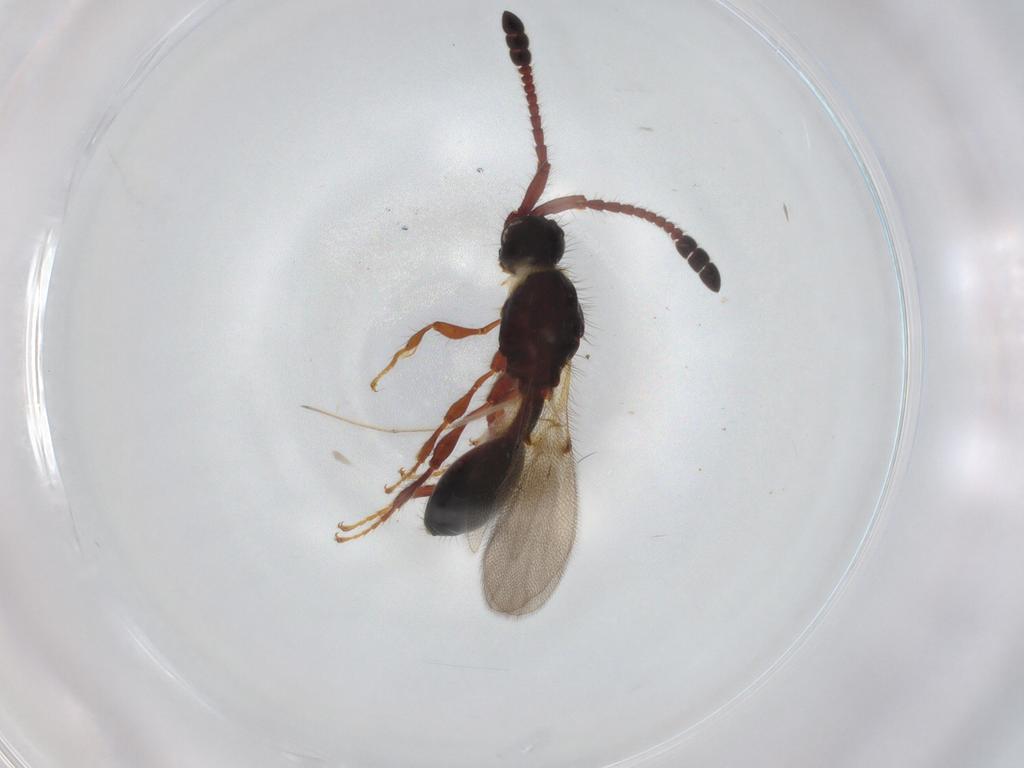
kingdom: Animalia
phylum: Arthropoda
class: Insecta
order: Hymenoptera
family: Diapriidae
